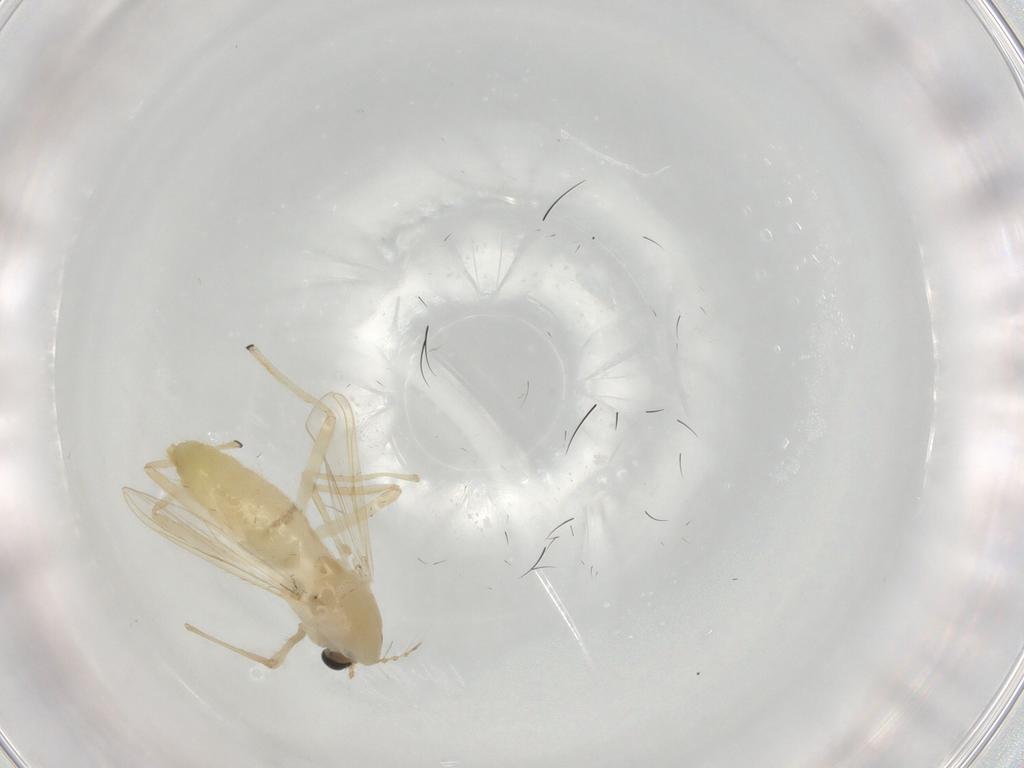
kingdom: Animalia
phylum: Arthropoda
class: Insecta
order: Diptera
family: Chironomidae
